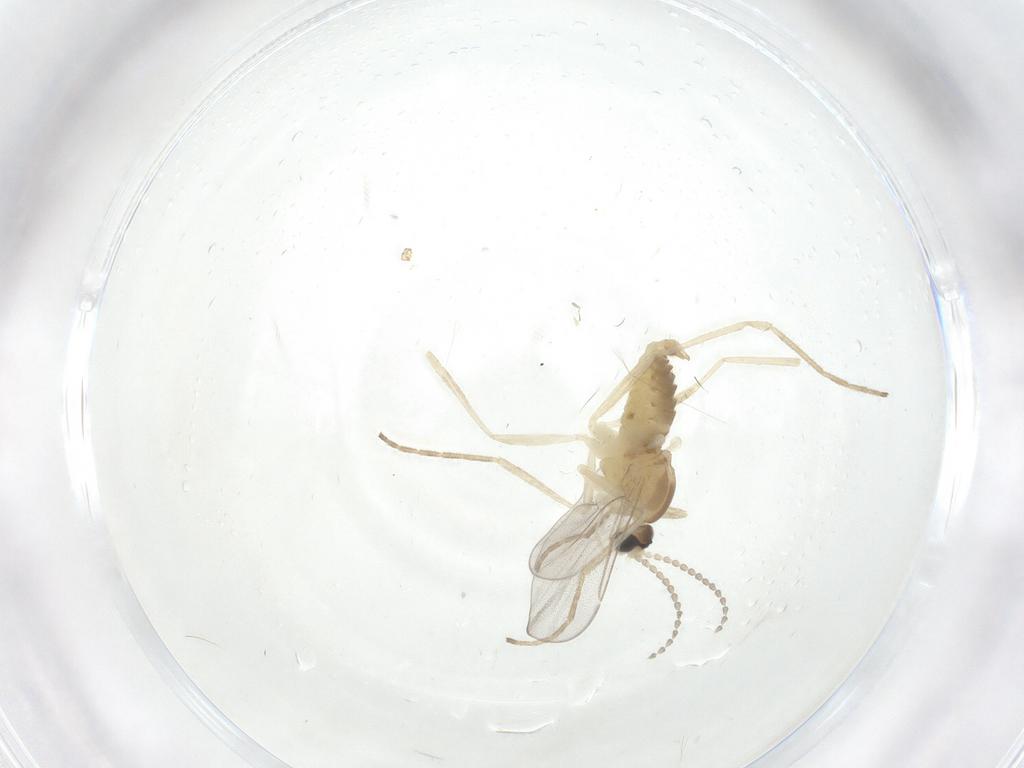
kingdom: Animalia
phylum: Arthropoda
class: Insecta
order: Diptera
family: Cecidomyiidae
